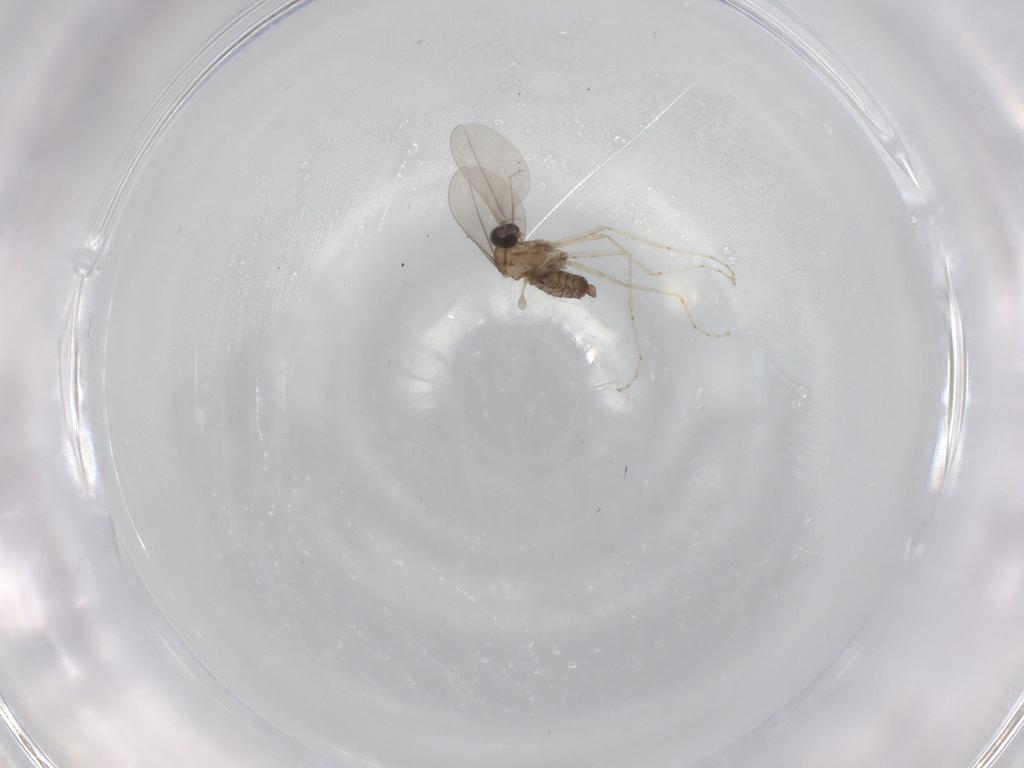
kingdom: Animalia
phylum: Arthropoda
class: Insecta
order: Diptera
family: Cecidomyiidae
